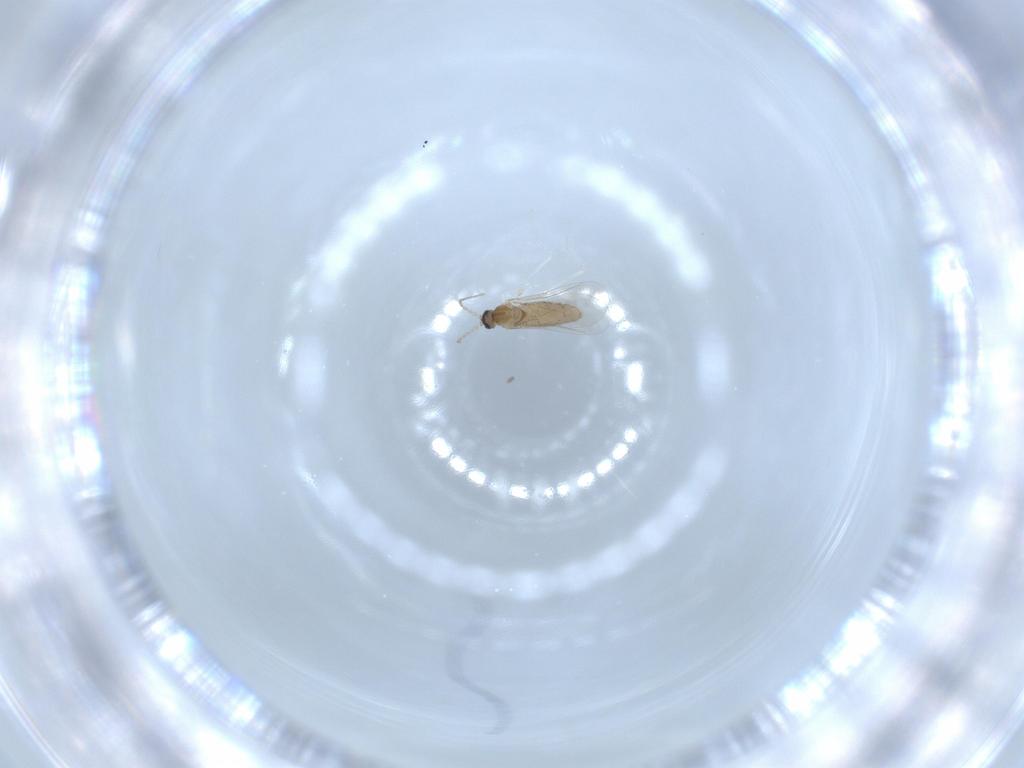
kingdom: Animalia
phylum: Arthropoda
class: Insecta
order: Diptera
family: Cecidomyiidae
